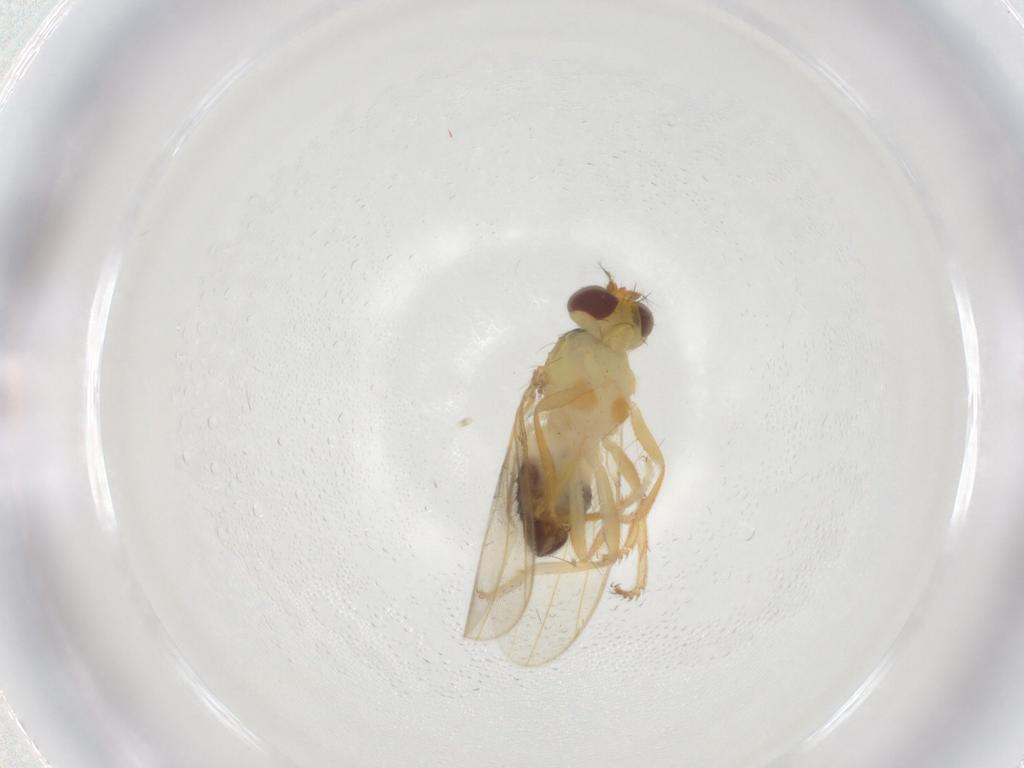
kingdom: Animalia
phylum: Arthropoda
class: Insecta
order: Diptera
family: Periscelididae
